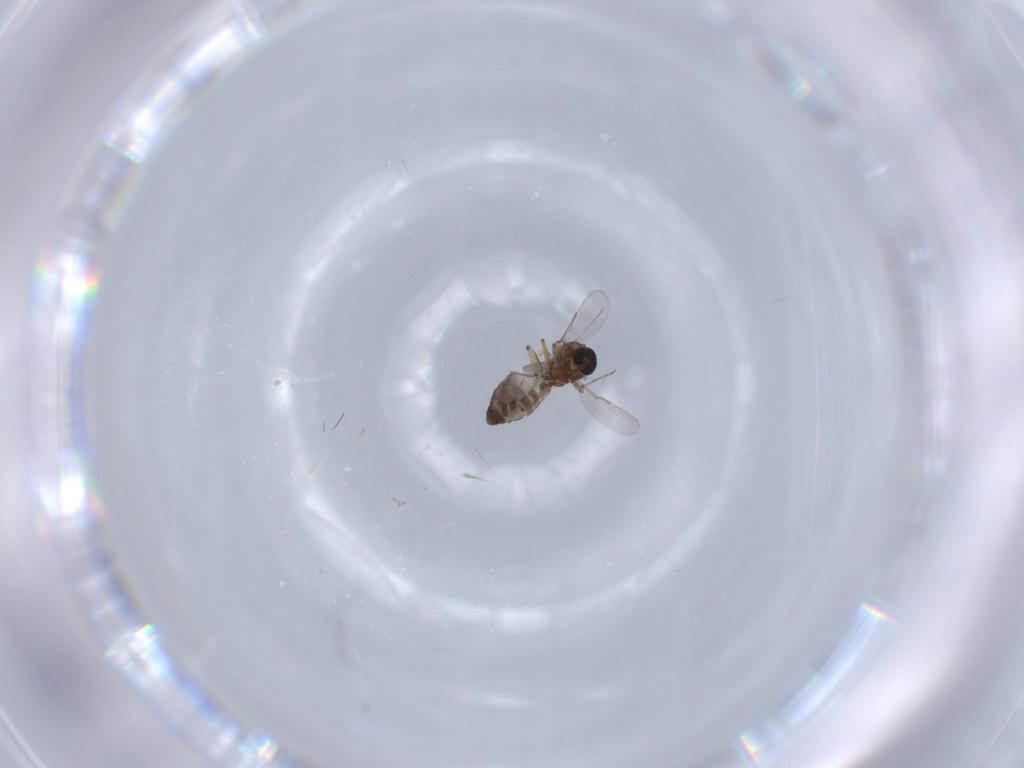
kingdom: Animalia
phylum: Arthropoda
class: Insecta
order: Diptera
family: Ceratopogonidae
